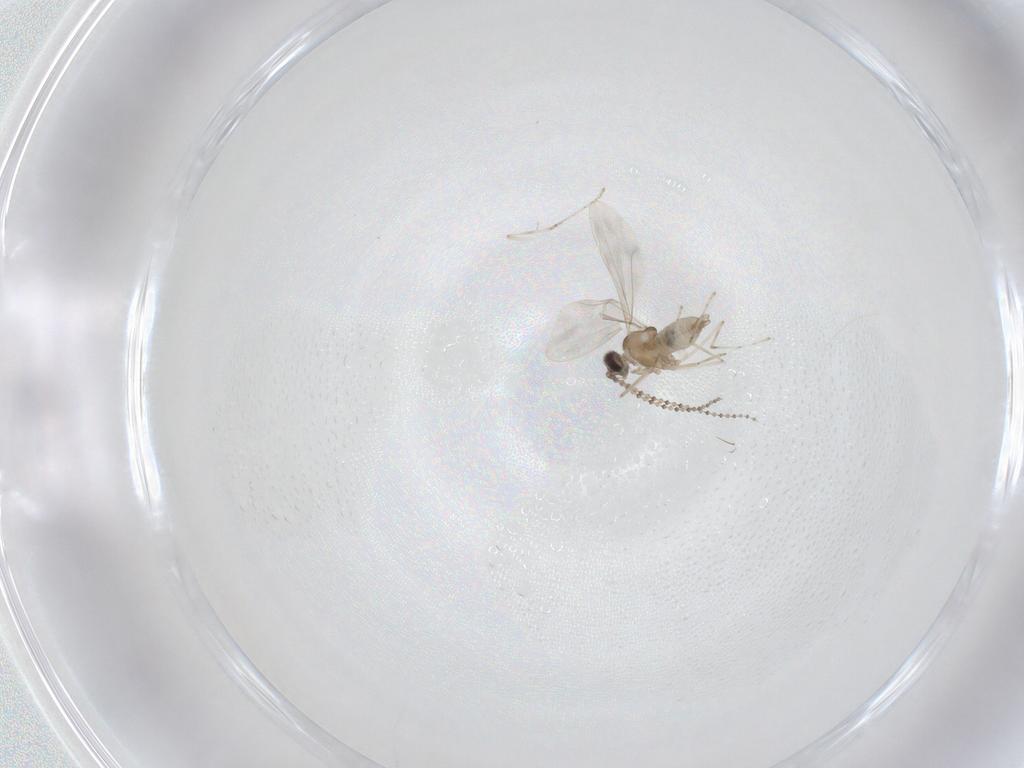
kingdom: Animalia
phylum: Arthropoda
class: Insecta
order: Diptera
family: Cecidomyiidae
